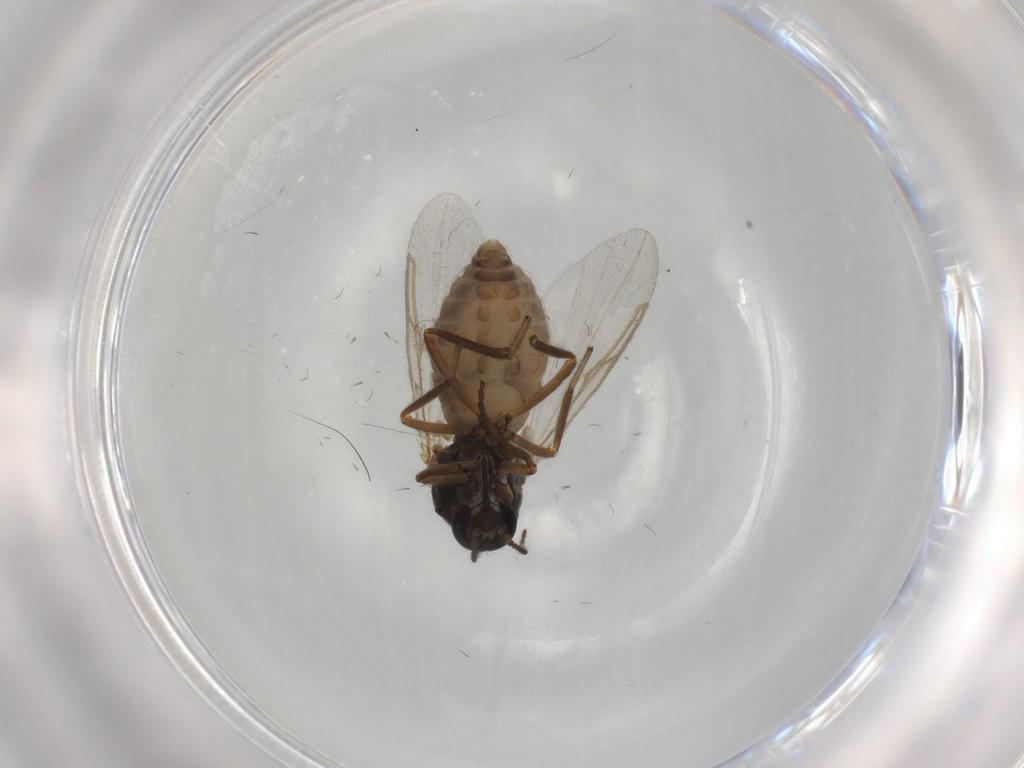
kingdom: Animalia
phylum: Arthropoda
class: Insecta
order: Diptera
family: Ceratopogonidae
